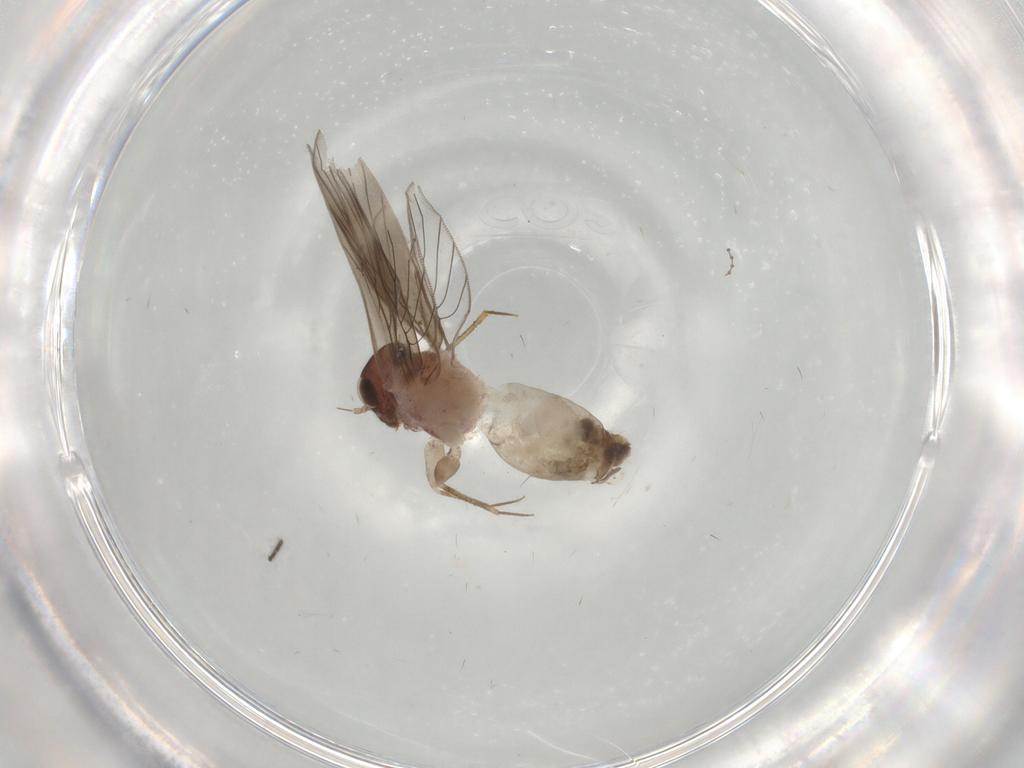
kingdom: Animalia
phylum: Arthropoda
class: Insecta
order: Psocodea
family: Lepidopsocidae
